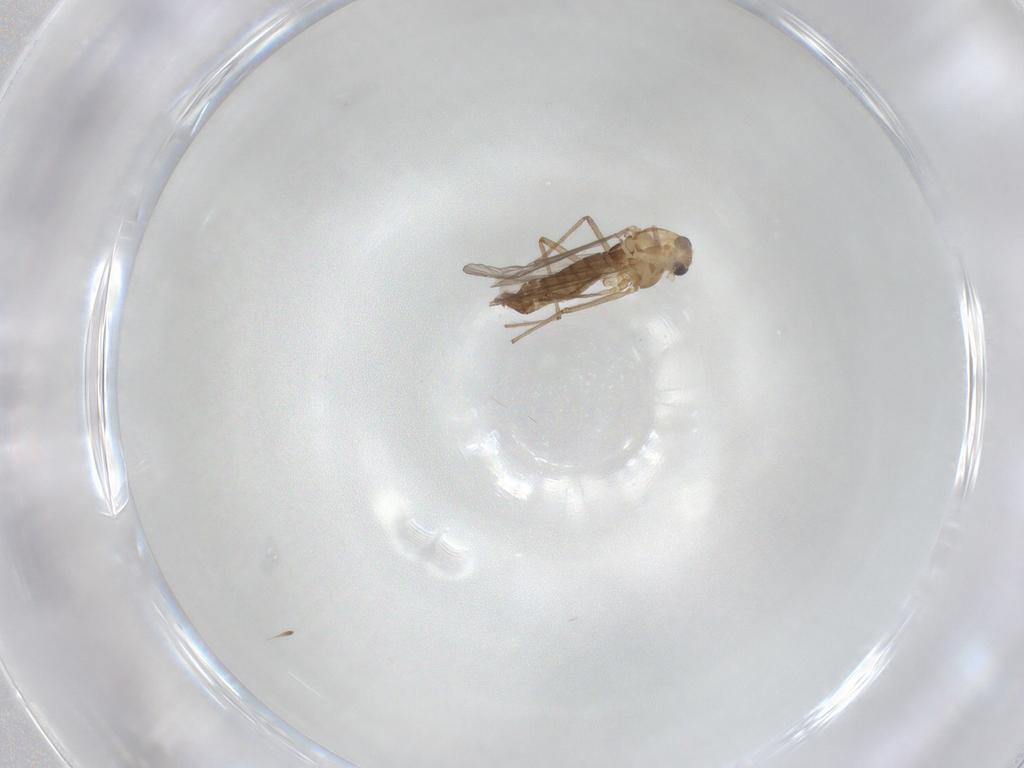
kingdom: Animalia
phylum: Arthropoda
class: Insecta
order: Diptera
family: Chironomidae
